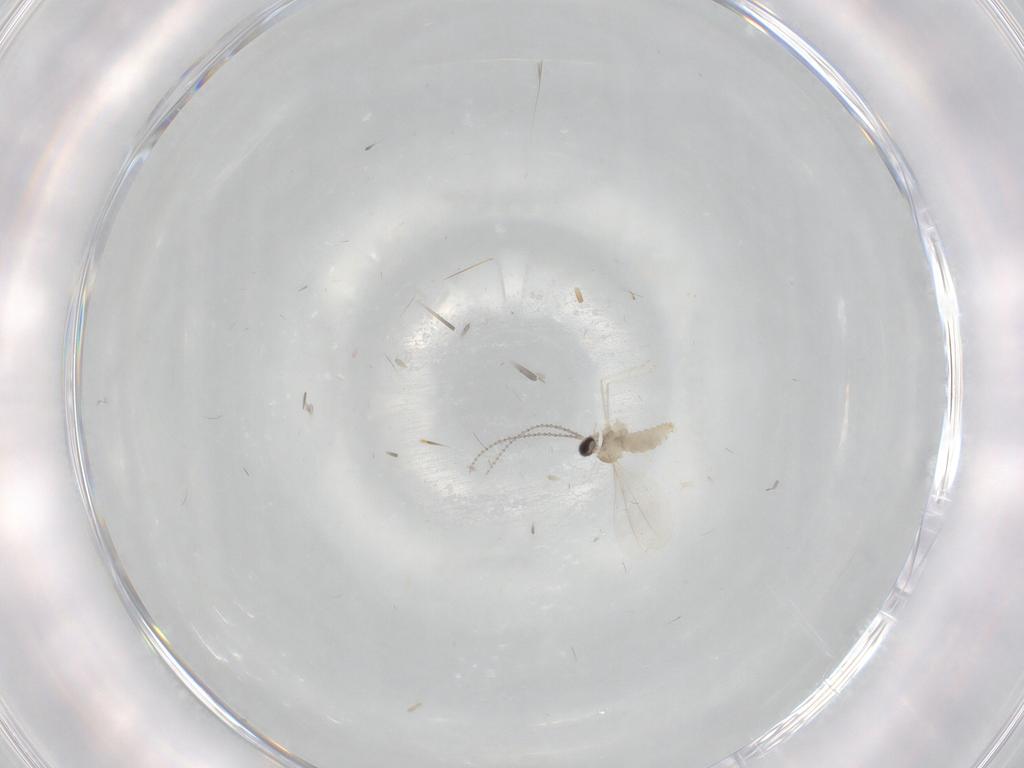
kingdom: Animalia
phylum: Arthropoda
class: Insecta
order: Diptera
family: Cecidomyiidae
